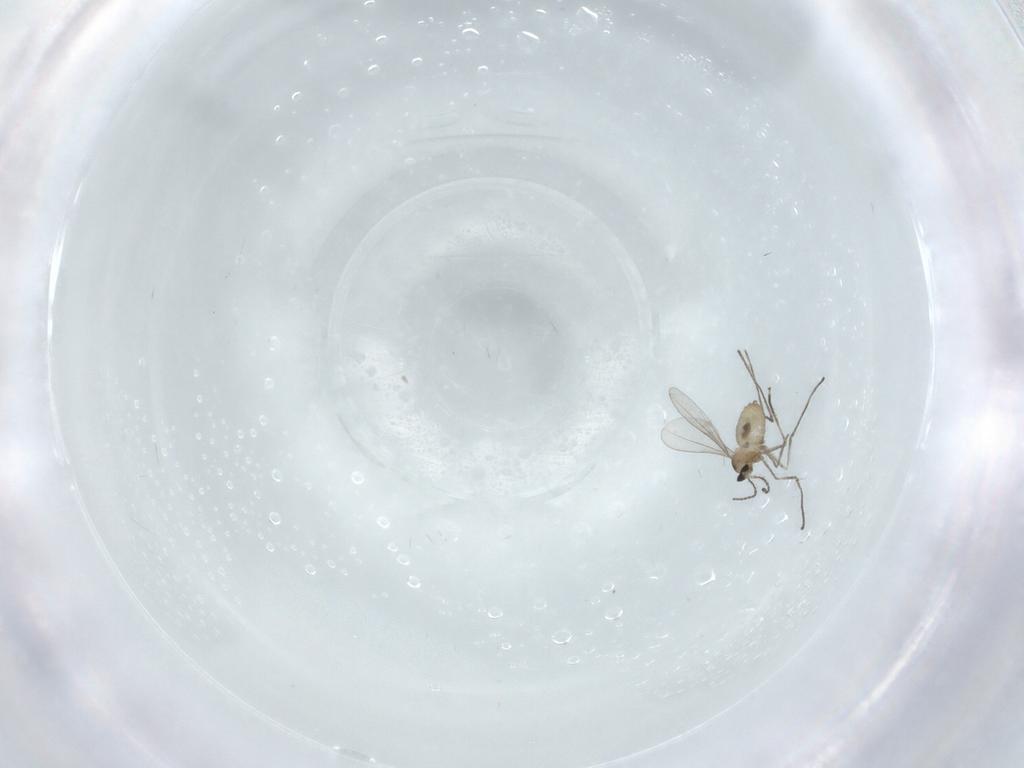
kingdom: Animalia
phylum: Arthropoda
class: Insecta
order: Diptera
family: Cecidomyiidae
